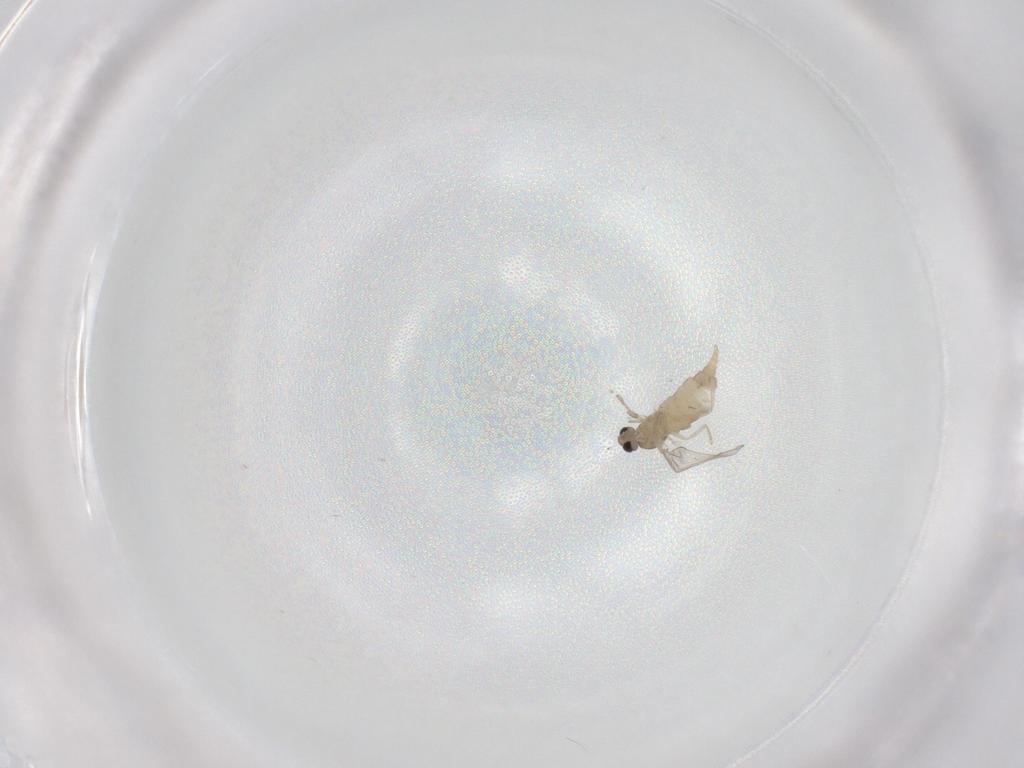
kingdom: Animalia
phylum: Arthropoda
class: Insecta
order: Diptera
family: Cecidomyiidae
